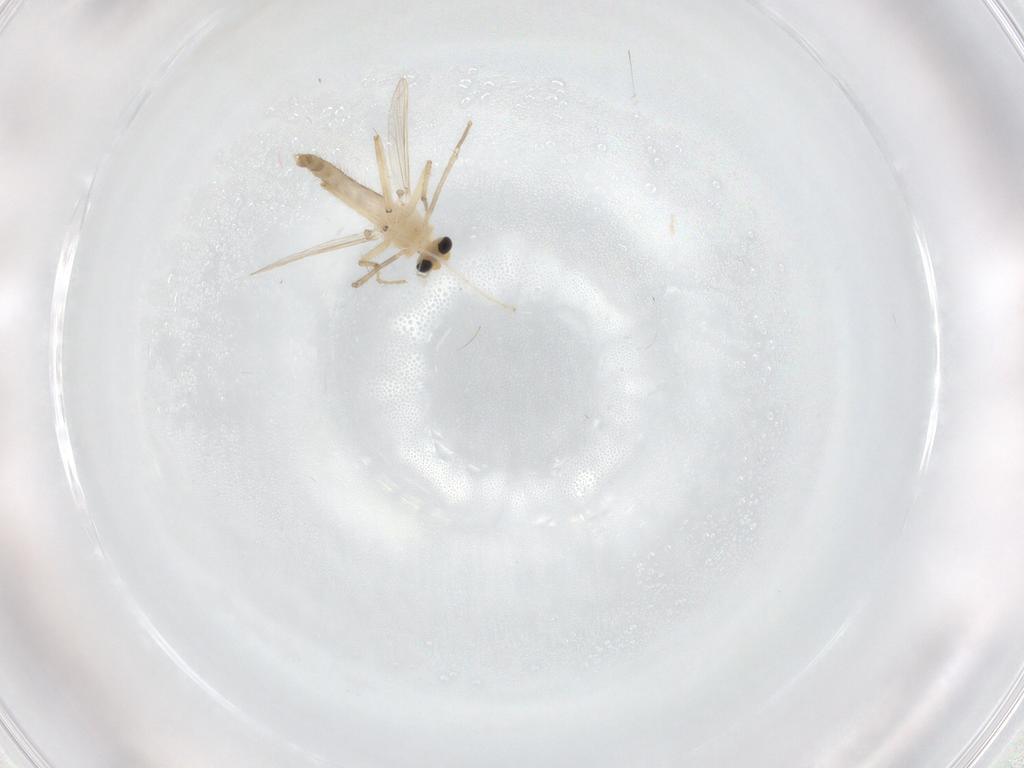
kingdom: Animalia
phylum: Arthropoda
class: Insecta
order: Diptera
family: Chironomidae
